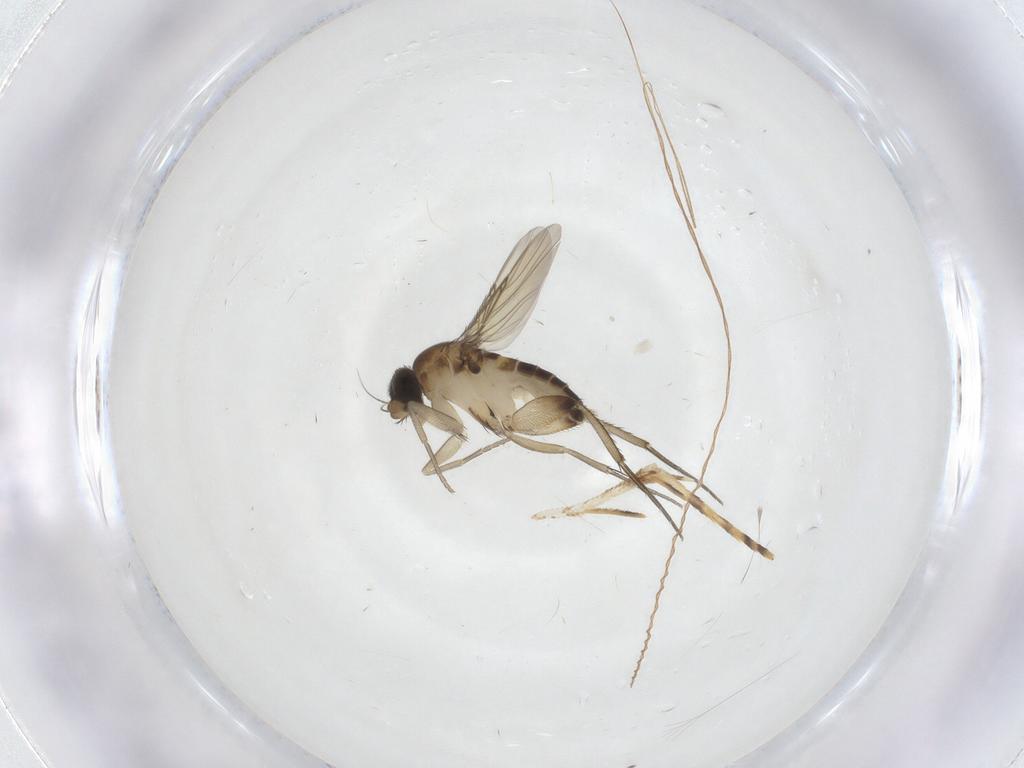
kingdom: Animalia
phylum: Arthropoda
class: Insecta
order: Diptera
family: Phoridae
